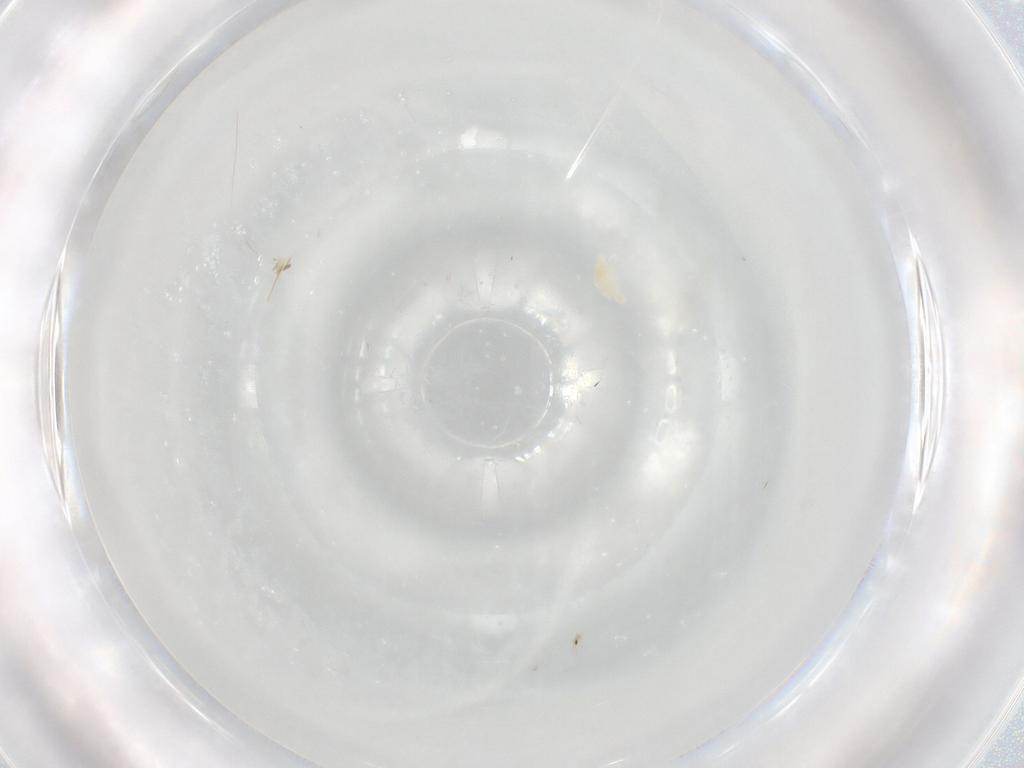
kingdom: Animalia
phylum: Arthropoda
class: Arachnida
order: Trombidiformes
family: Eupodidae
